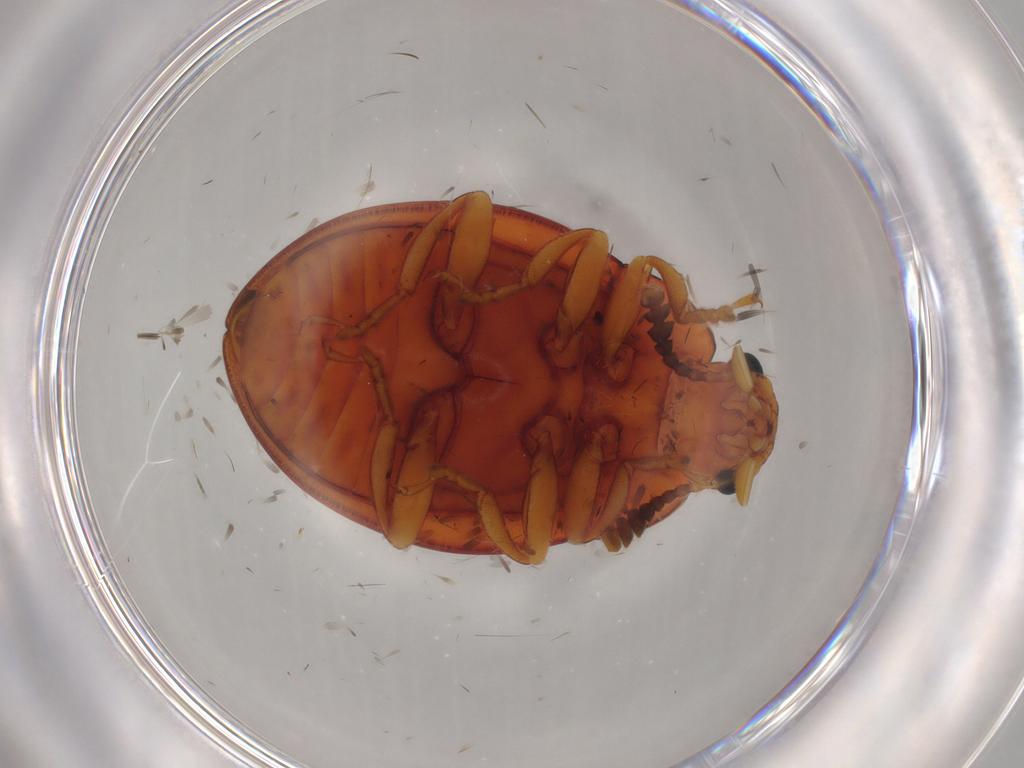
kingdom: Animalia
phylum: Arthropoda
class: Insecta
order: Coleoptera
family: Erotylidae
